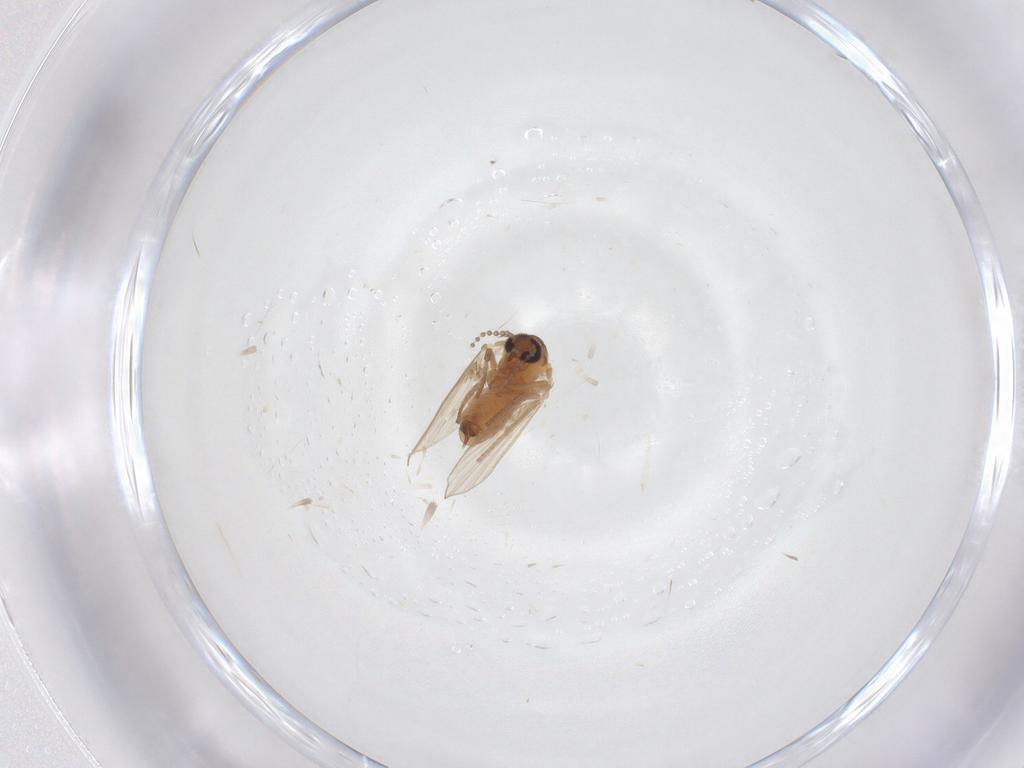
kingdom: Animalia
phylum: Arthropoda
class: Insecta
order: Diptera
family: Psychodidae
